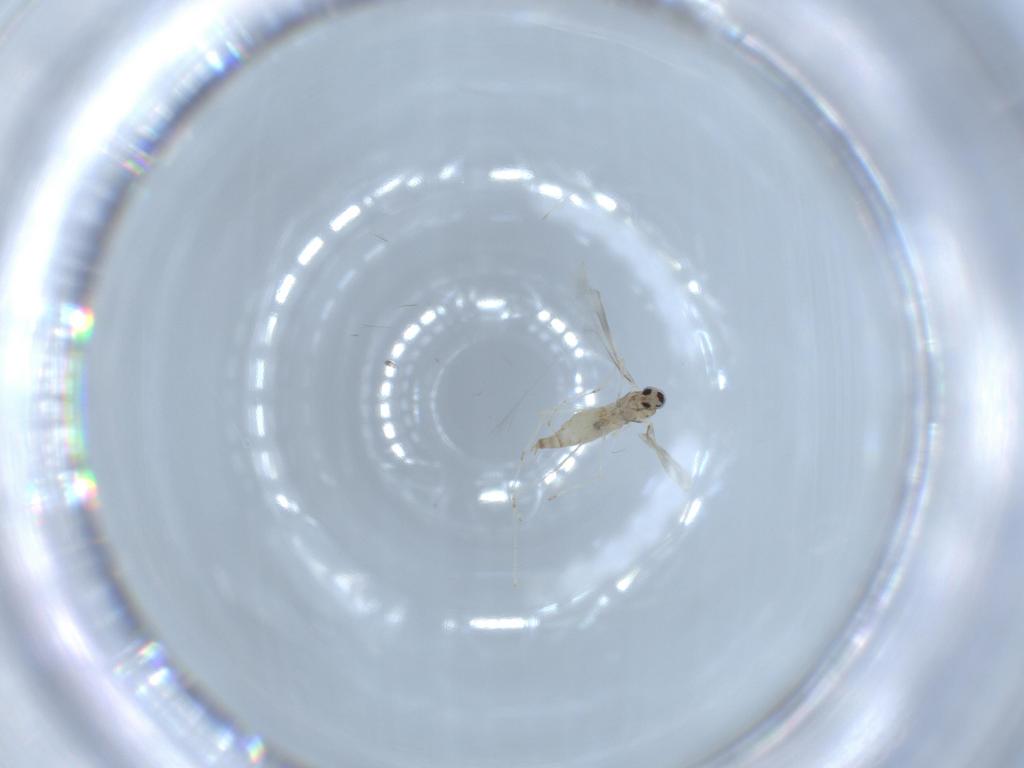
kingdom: Animalia
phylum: Arthropoda
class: Insecta
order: Diptera
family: Phoridae
